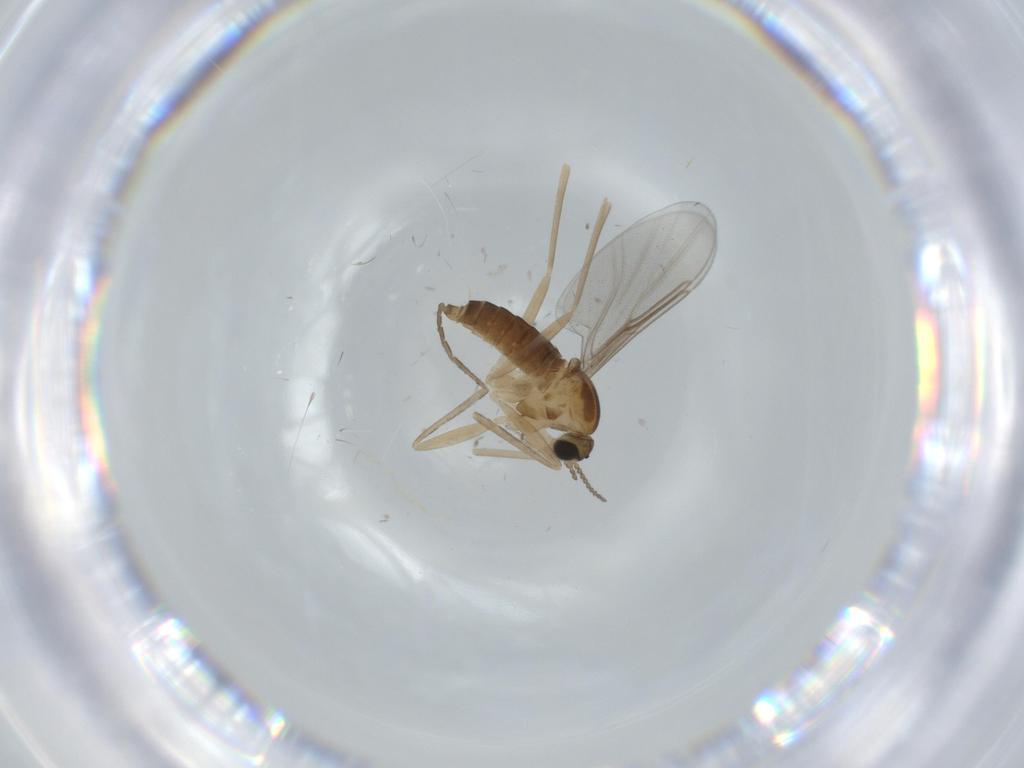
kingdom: Animalia
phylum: Arthropoda
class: Insecta
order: Diptera
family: Cecidomyiidae
